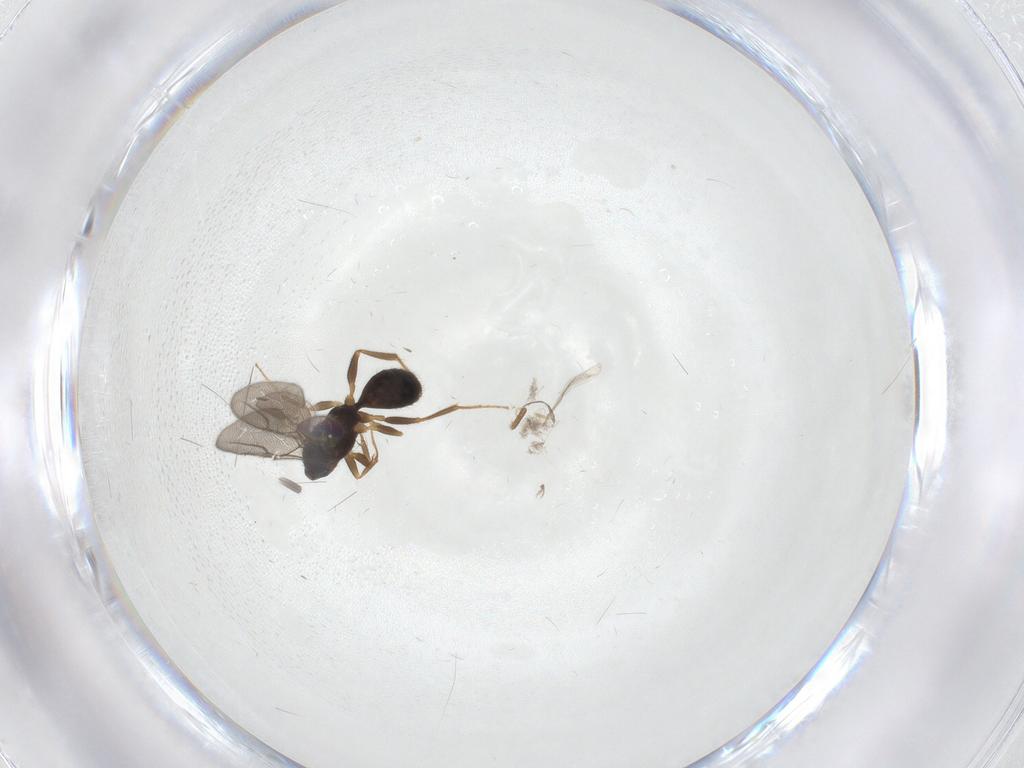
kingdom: Animalia
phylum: Arthropoda
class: Insecta
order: Hymenoptera
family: Bethylidae
